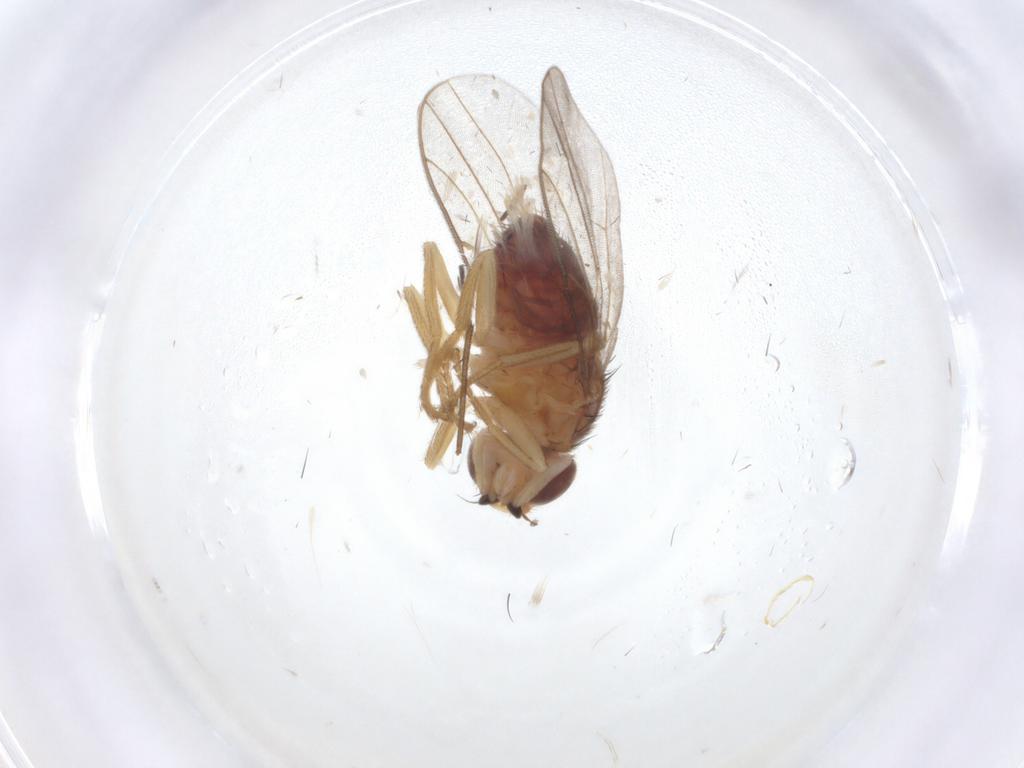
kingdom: Animalia
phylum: Arthropoda
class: Insecta
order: Diptera
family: Chloropidae
